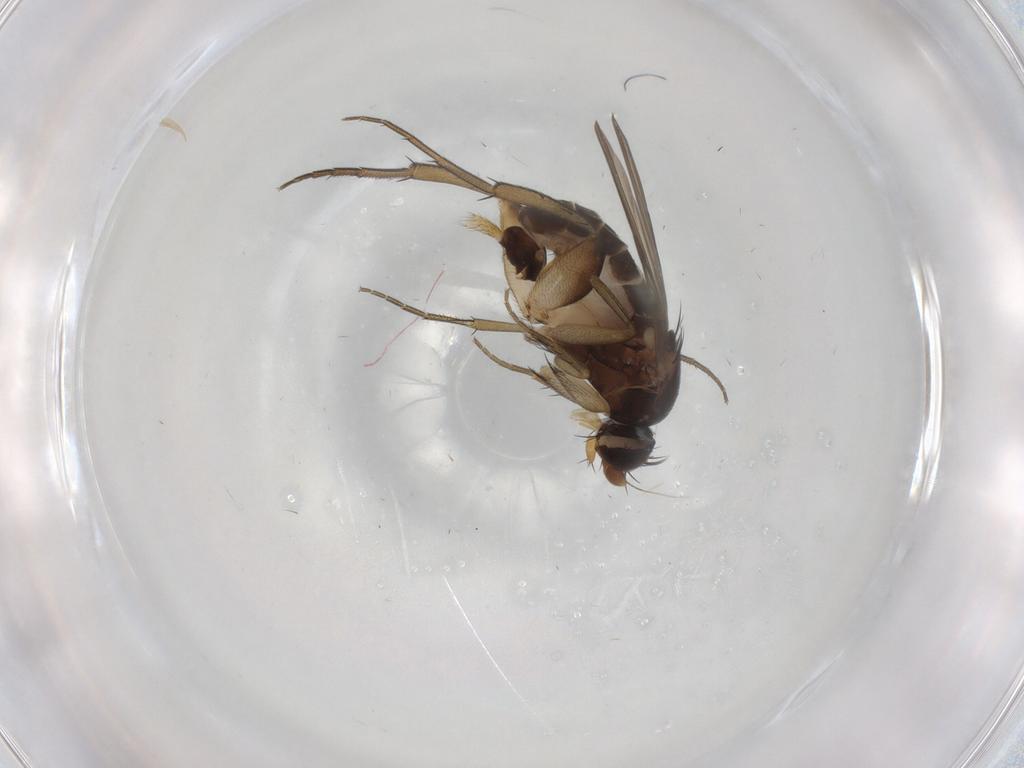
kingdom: Animalia
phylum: Arthropoda
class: Insecta
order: Diptera
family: Phoridae
